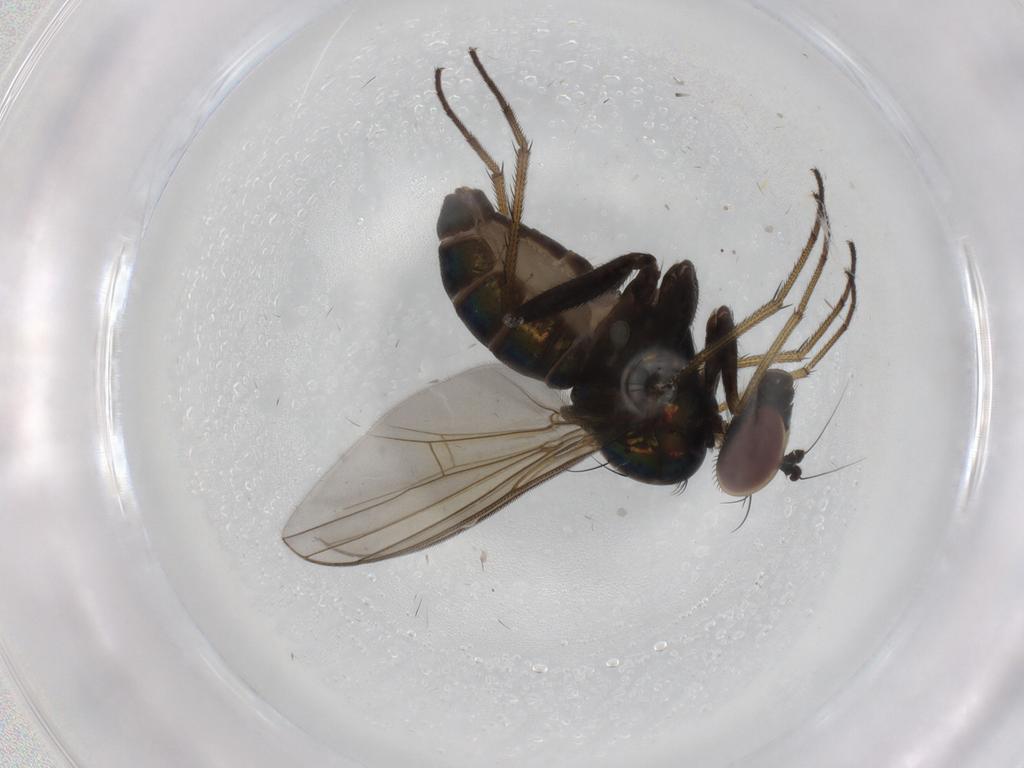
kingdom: Animalia
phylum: Arthropoda
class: Insecta
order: Diptera
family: Dolichopodidae
